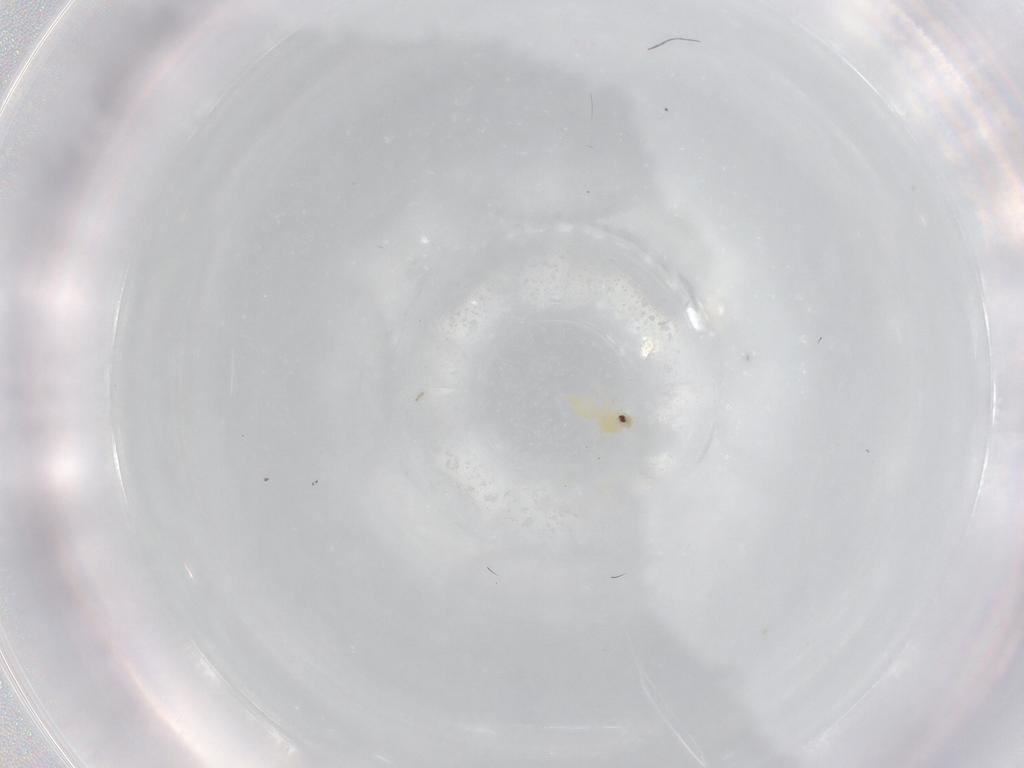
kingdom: Animalia
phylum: Arthropoda
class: Insecta
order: Hemiptera
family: Aleyrodidae
